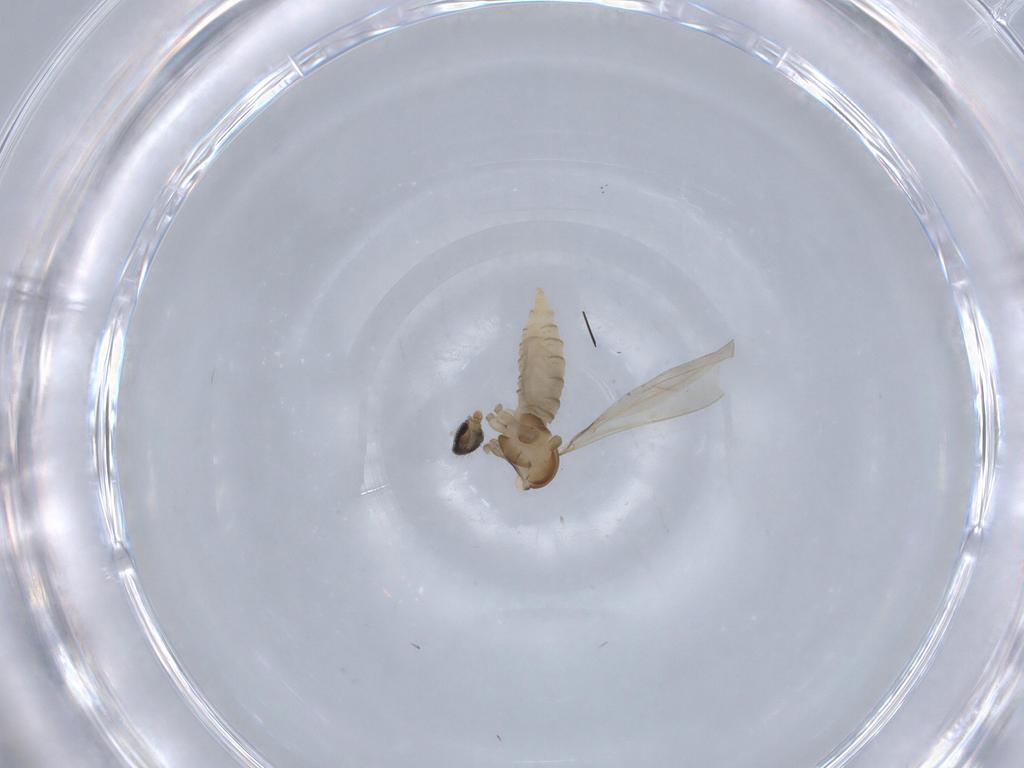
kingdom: Animalia
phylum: Arthropoda
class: Insecta
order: Diptera
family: Cecidomyiidae
